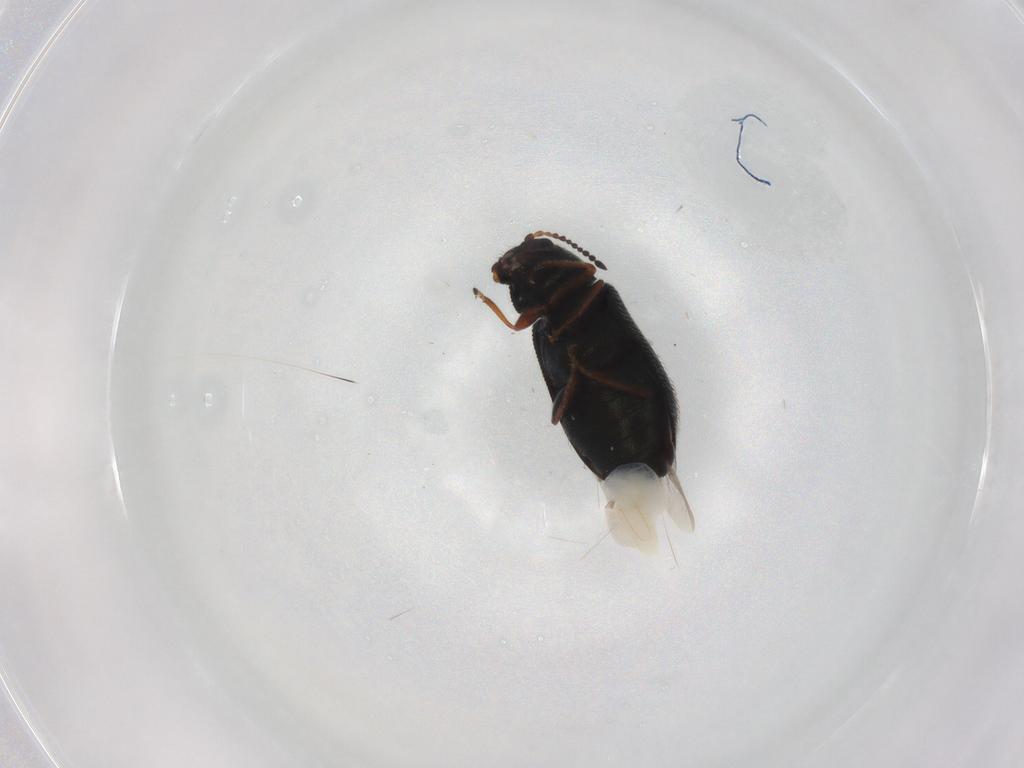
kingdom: Animalia
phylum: Arthropoda
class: Insecta
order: Coleoptera
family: Melyridae
